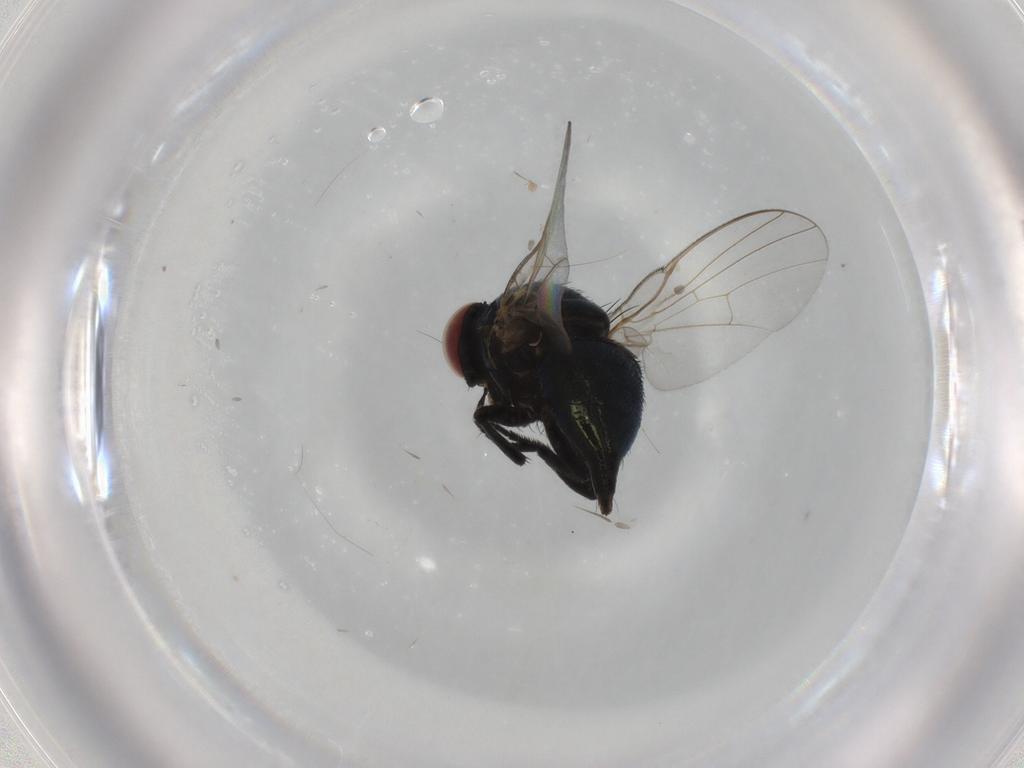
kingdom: Animalia
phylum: Arthropoda
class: Insecta
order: Diptera
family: Agromyzidae
